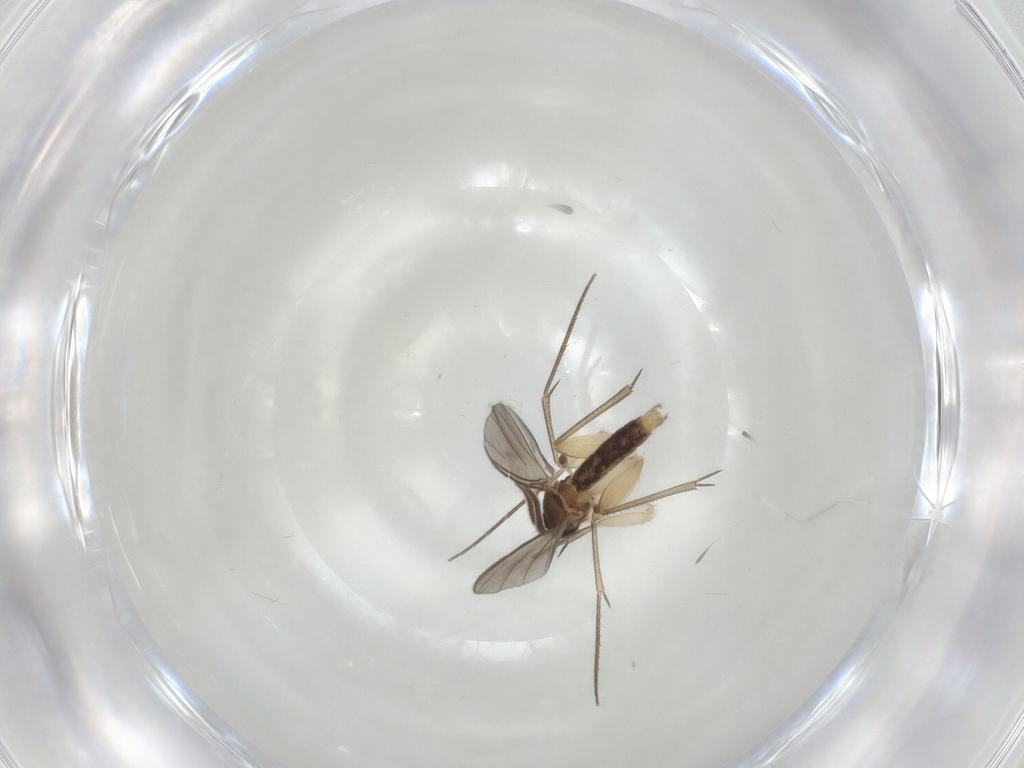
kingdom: Animalia
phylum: Arthropoda
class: Insecta
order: Diptera
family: Mycetophilidae
